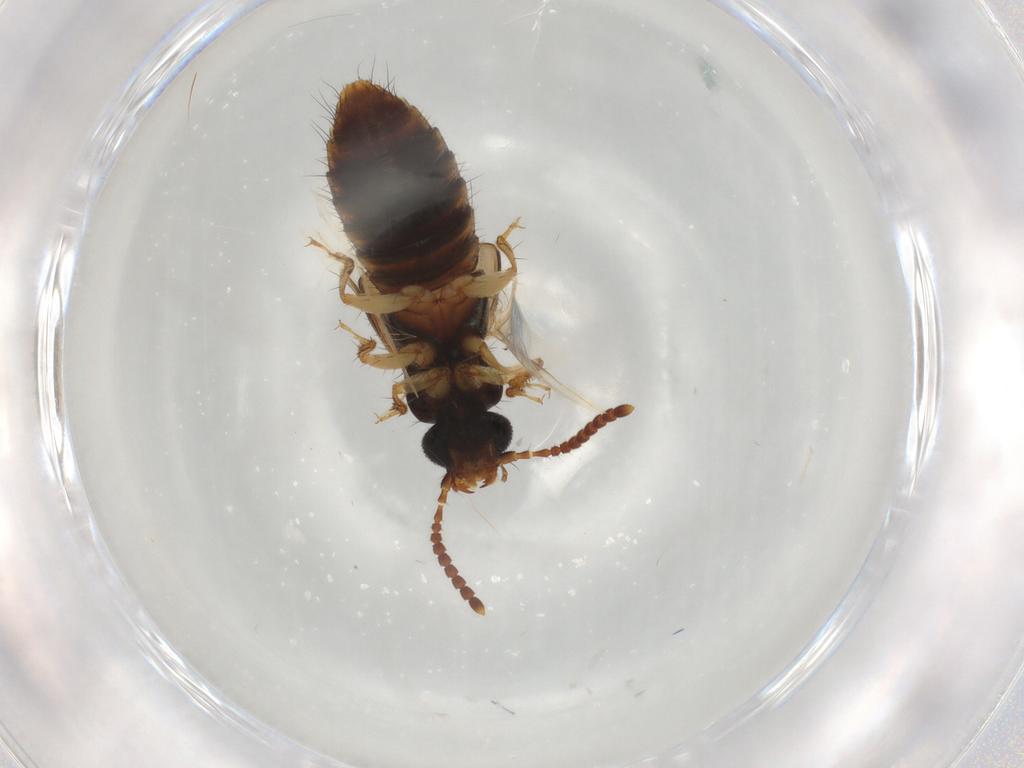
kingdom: Animalia
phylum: Arthropoda
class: Insecta
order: Coleoptera
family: Staphylinidae
